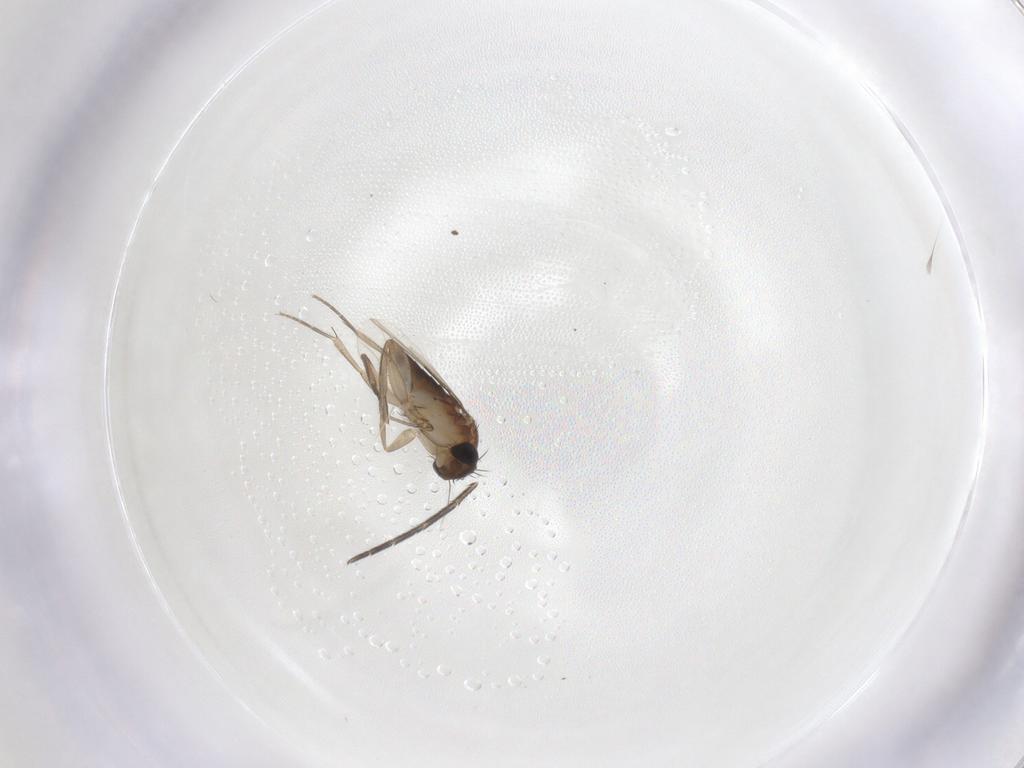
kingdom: Animalia
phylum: Arthropoda
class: Insecta
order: Diptera
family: Phoridae
